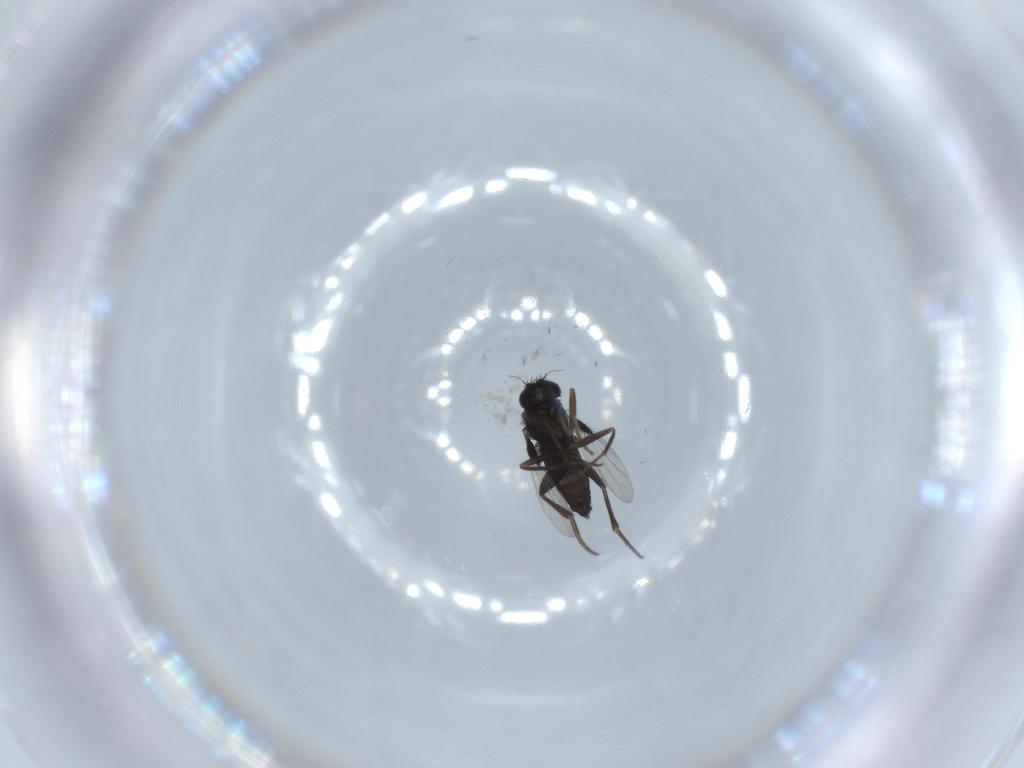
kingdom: Animalia
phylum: Arthropoda
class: Insecta
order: Diptera
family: Phoridae
